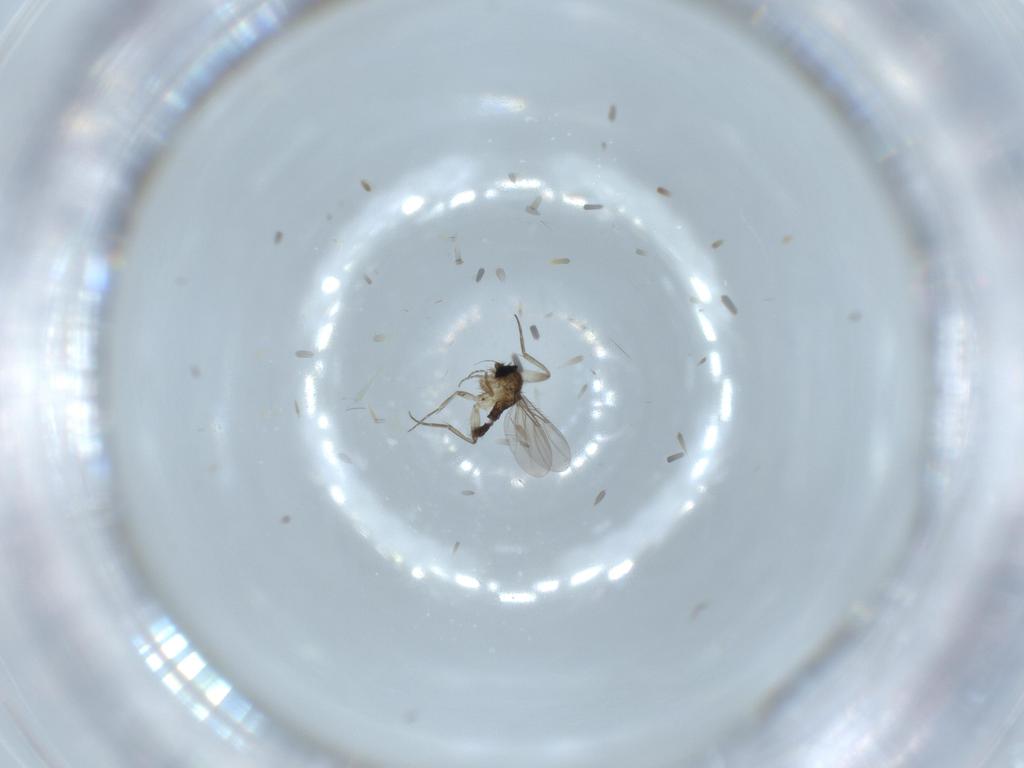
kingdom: Animalia
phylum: Arthropoda
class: Insecta
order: Diptera
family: Phoridae
